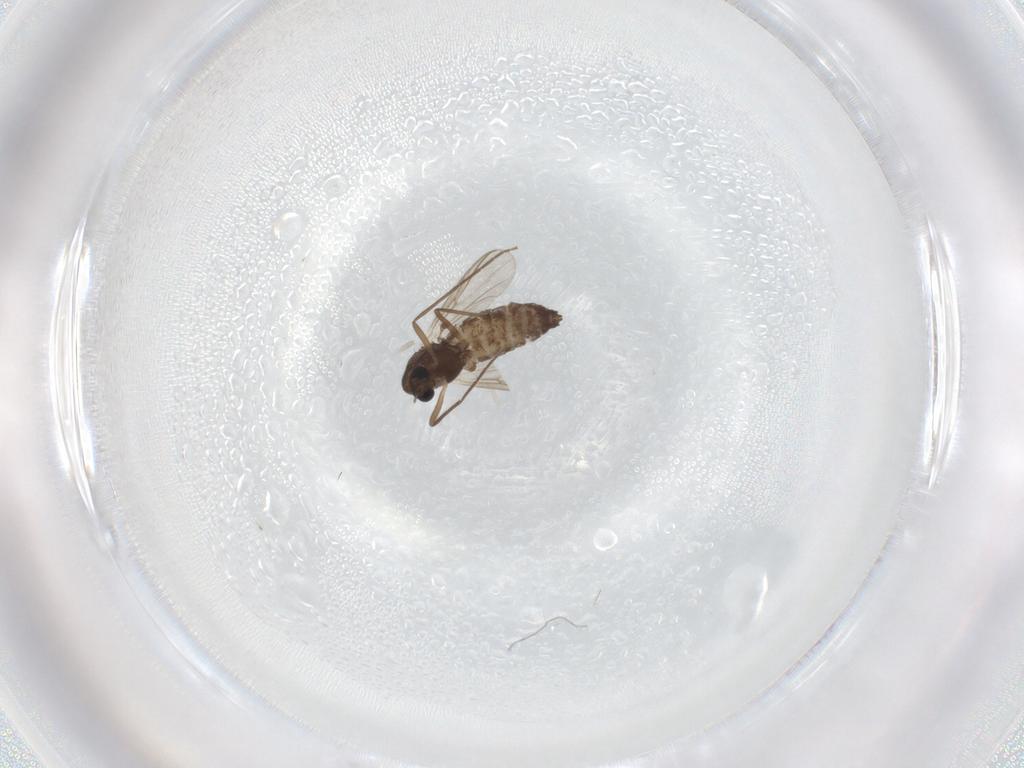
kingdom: Animalia
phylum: Arthropoda
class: Insecta
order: Diptera
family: Chironomidae
